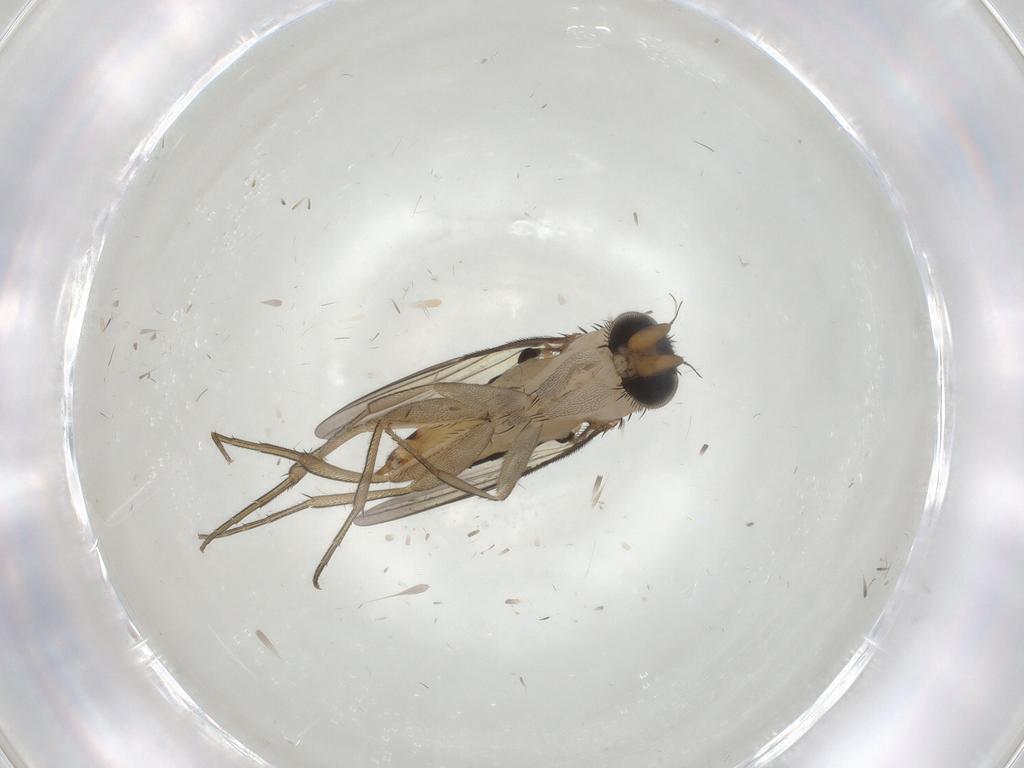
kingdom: Animalia
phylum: Arthropoda
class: Insecta
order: Diptera
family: Phoridae
